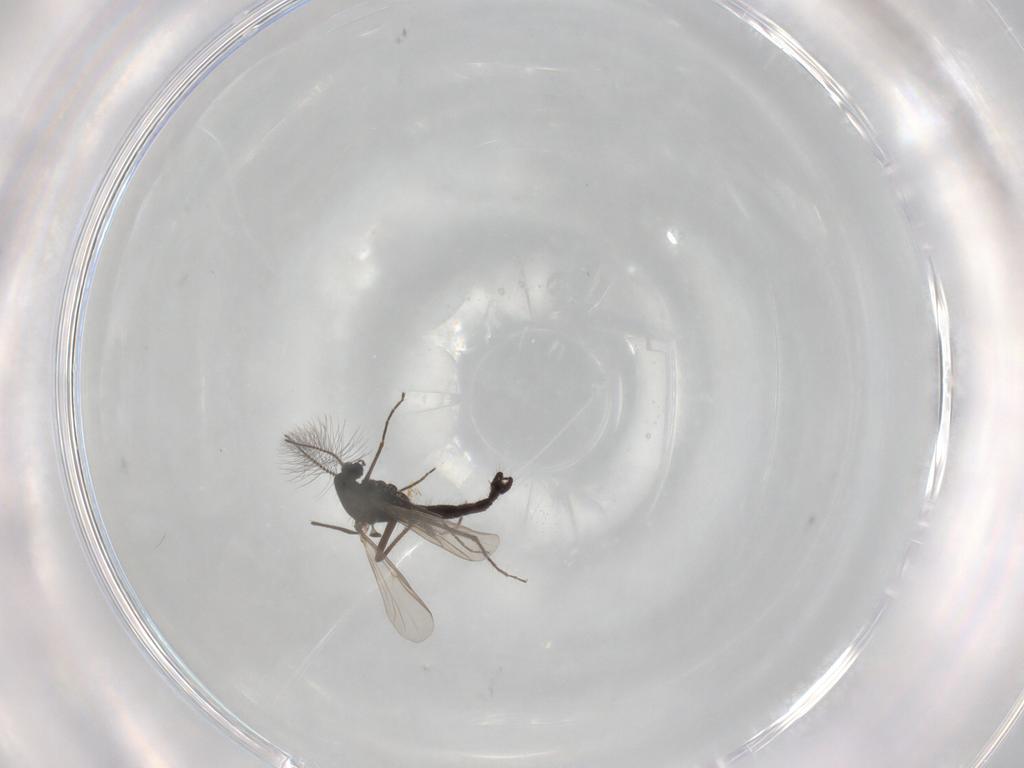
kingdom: Animalia
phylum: Arthropoda
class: Insecta
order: Diptera
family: Chironomidae
